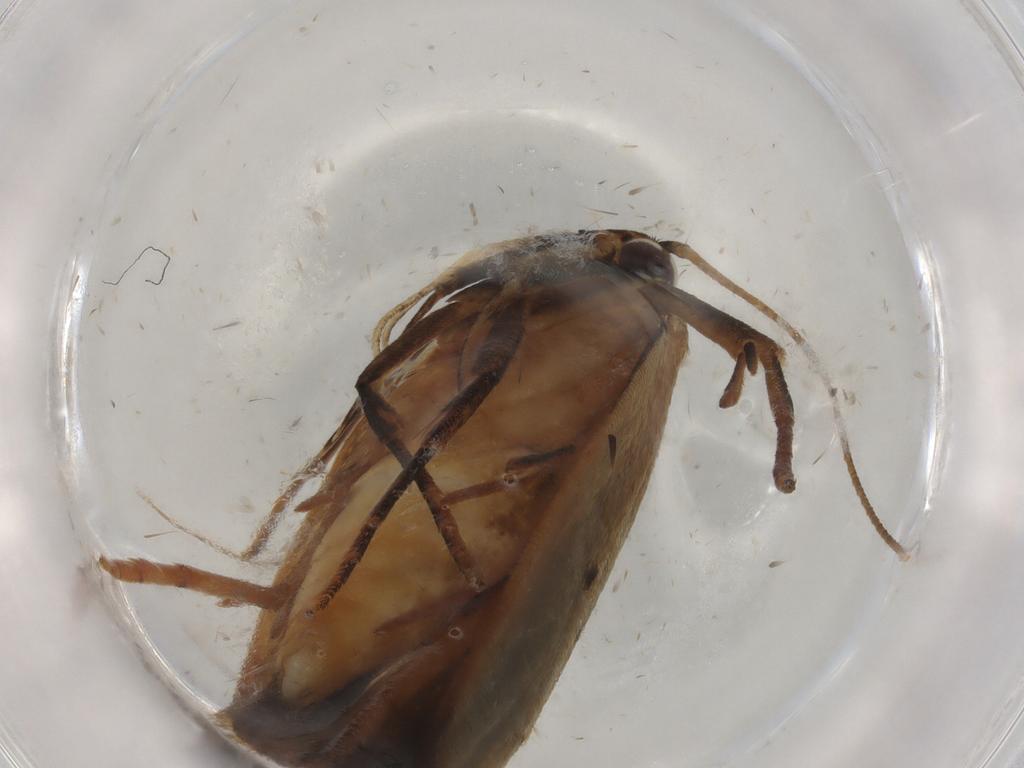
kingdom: Animalia
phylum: Arthropoda
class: Insecta
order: Lepidoptera
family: Gelechiidae
